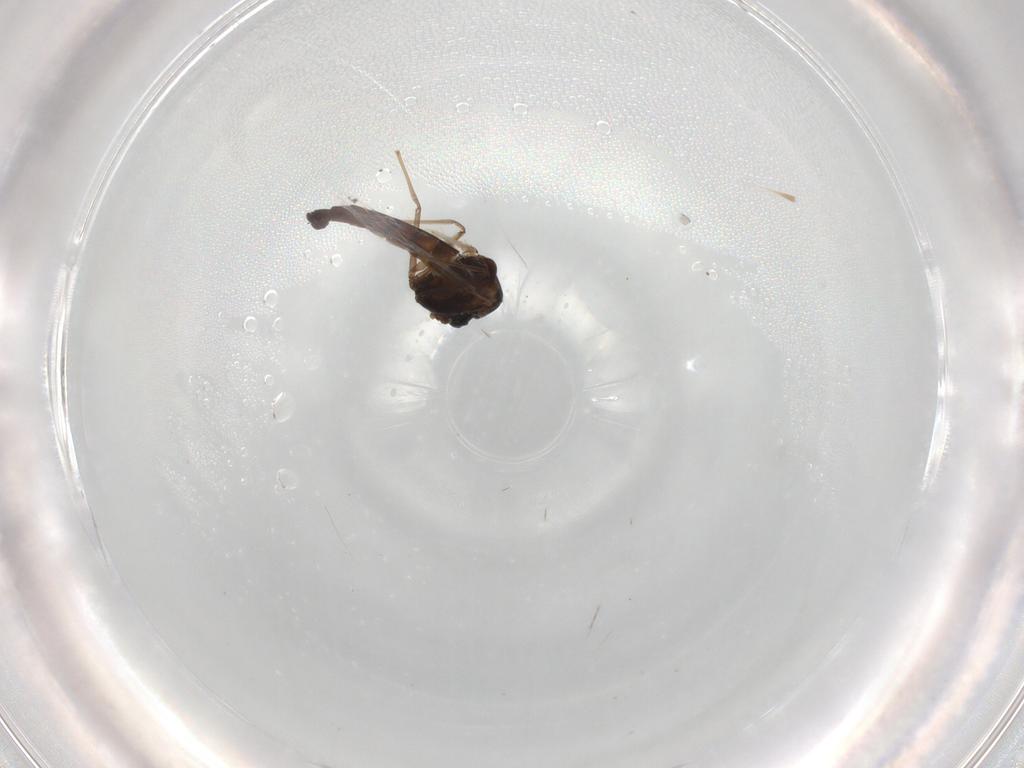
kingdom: Animalia
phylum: Arthropoda
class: Insecta
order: Diptera
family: Chironomidae
